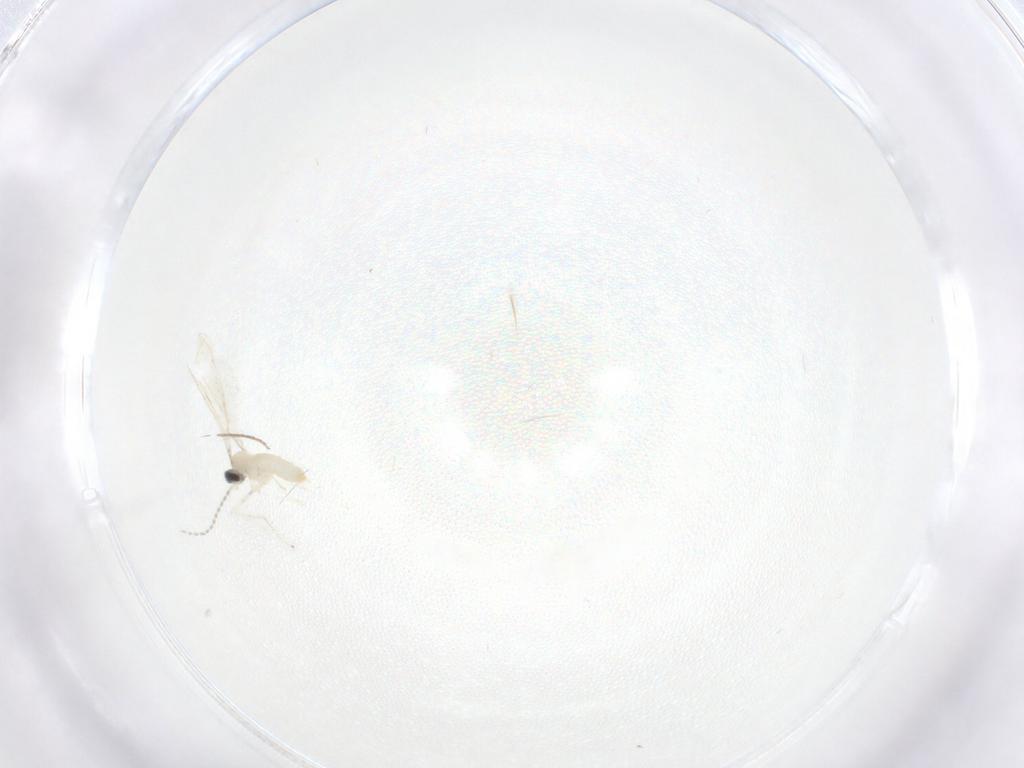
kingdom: Animalia
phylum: Arthropoda
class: Insecta
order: Diptera
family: Cecidomyiidae
